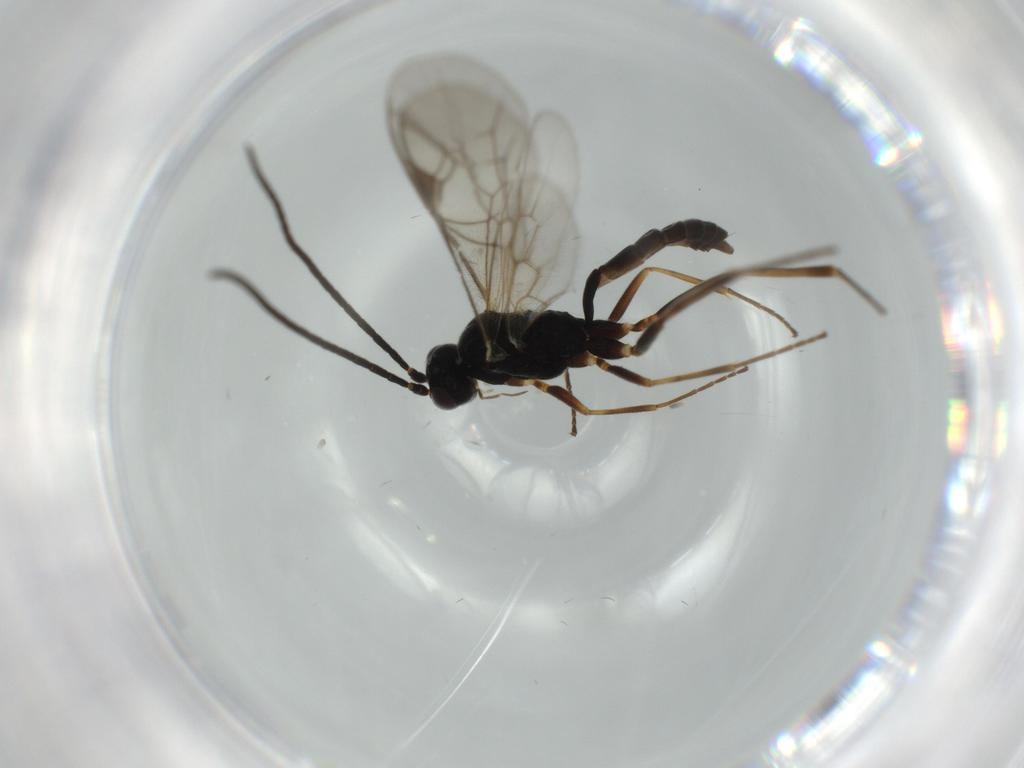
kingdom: Animalia
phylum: Arthropoda
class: Insecta
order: Hymenoptera
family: Ichneumonidae
